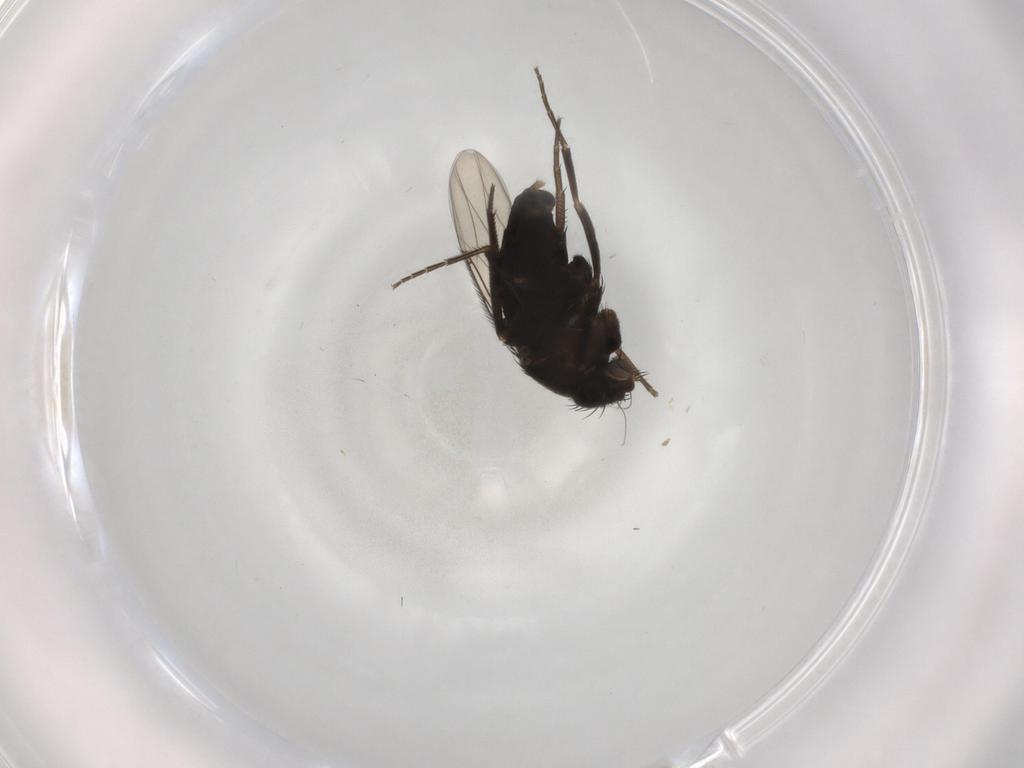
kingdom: Animalia
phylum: Arthropoda
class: Insecta
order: Diptera
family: Phoridae
